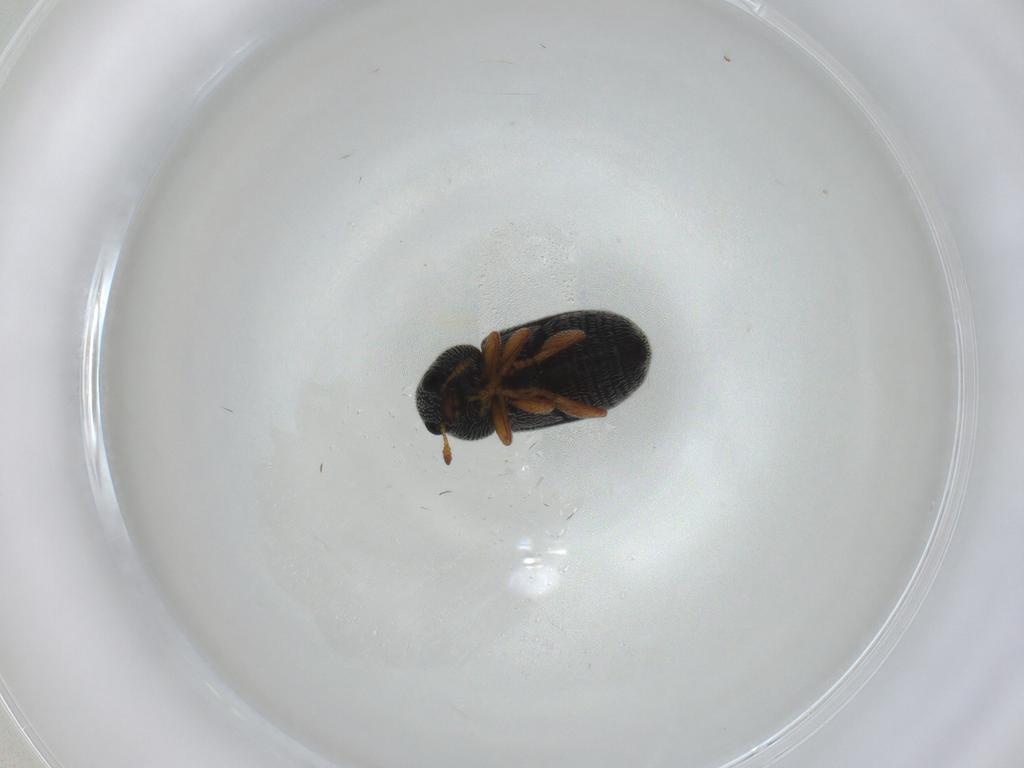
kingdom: Animalia
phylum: Arthropoda
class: Insecta
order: Coleoptera
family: Anthribidae
